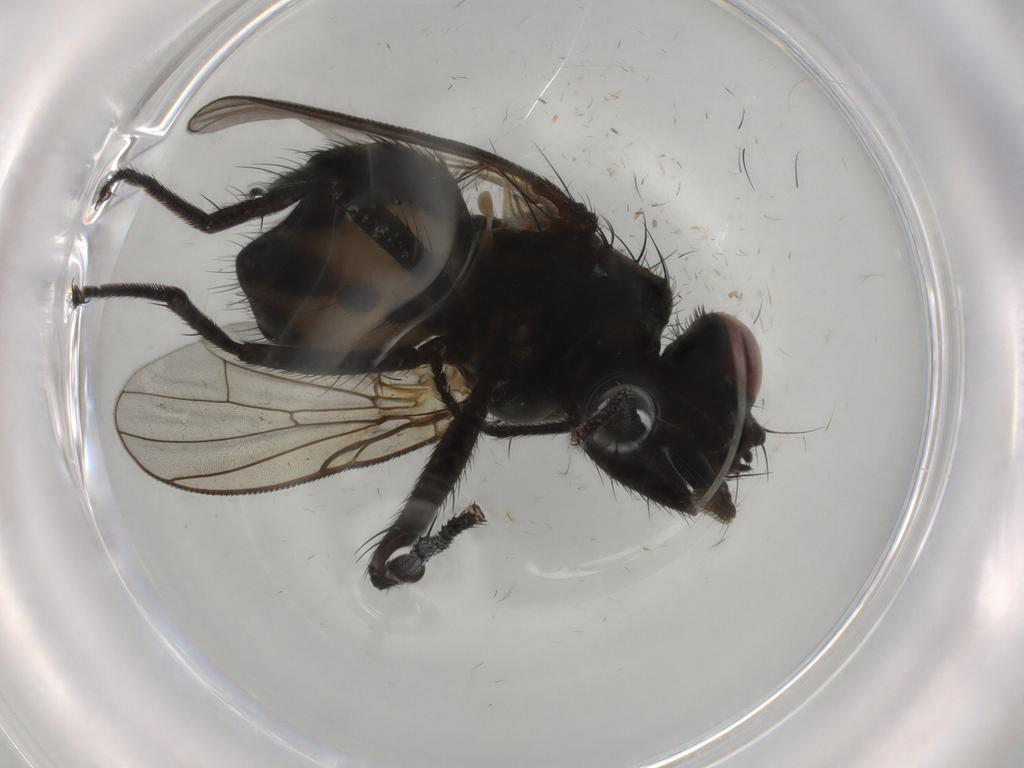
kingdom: Animalia
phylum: Arthropoda
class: Insecta
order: Diptera
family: Muscidae
